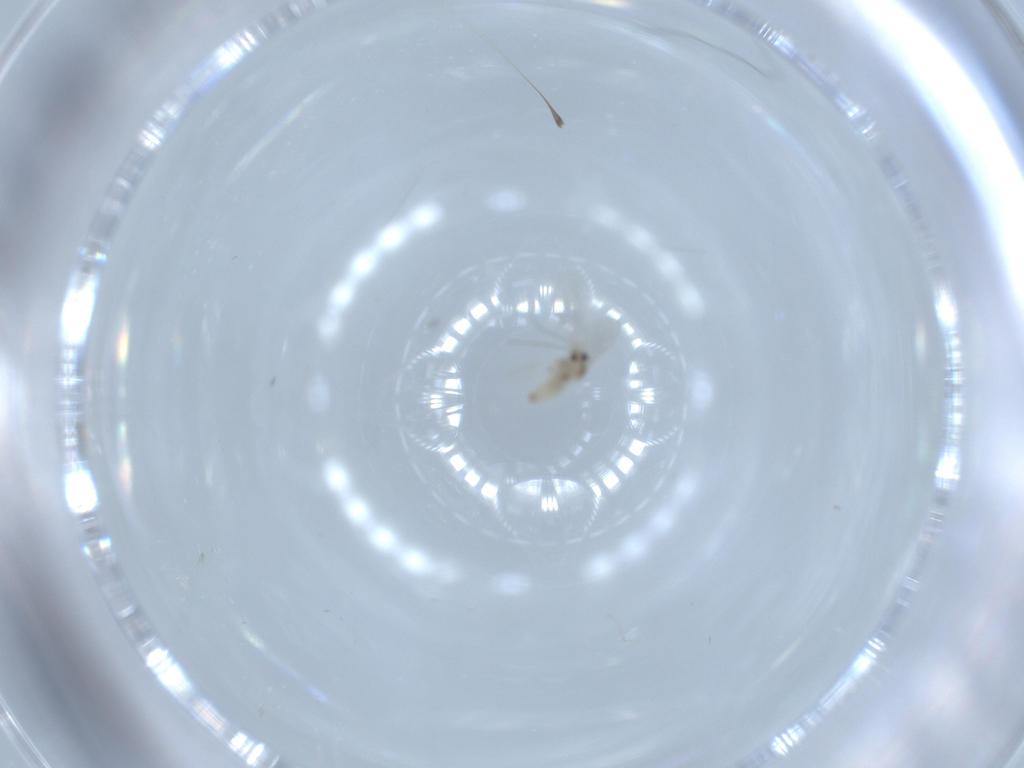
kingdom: Animalia
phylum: Arthropoda
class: Insecta
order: Diptera
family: Cecidomyiidae
